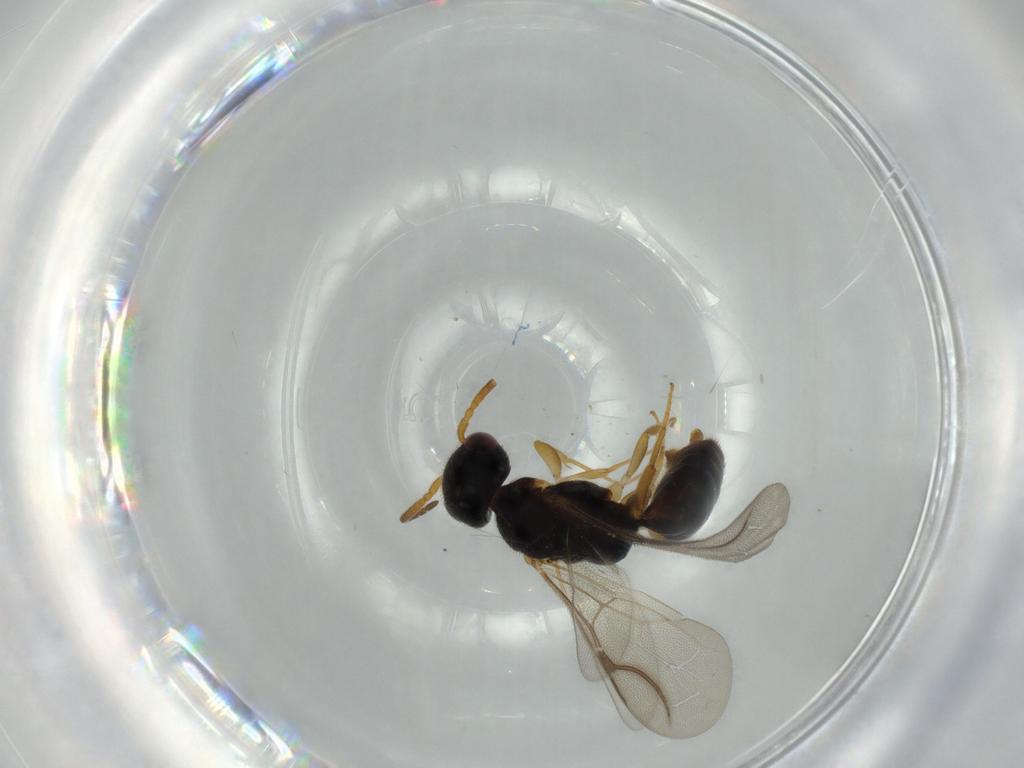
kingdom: Animalia
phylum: Arthropoda
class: Insecta
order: Hymenoptera
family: Bethylidae
